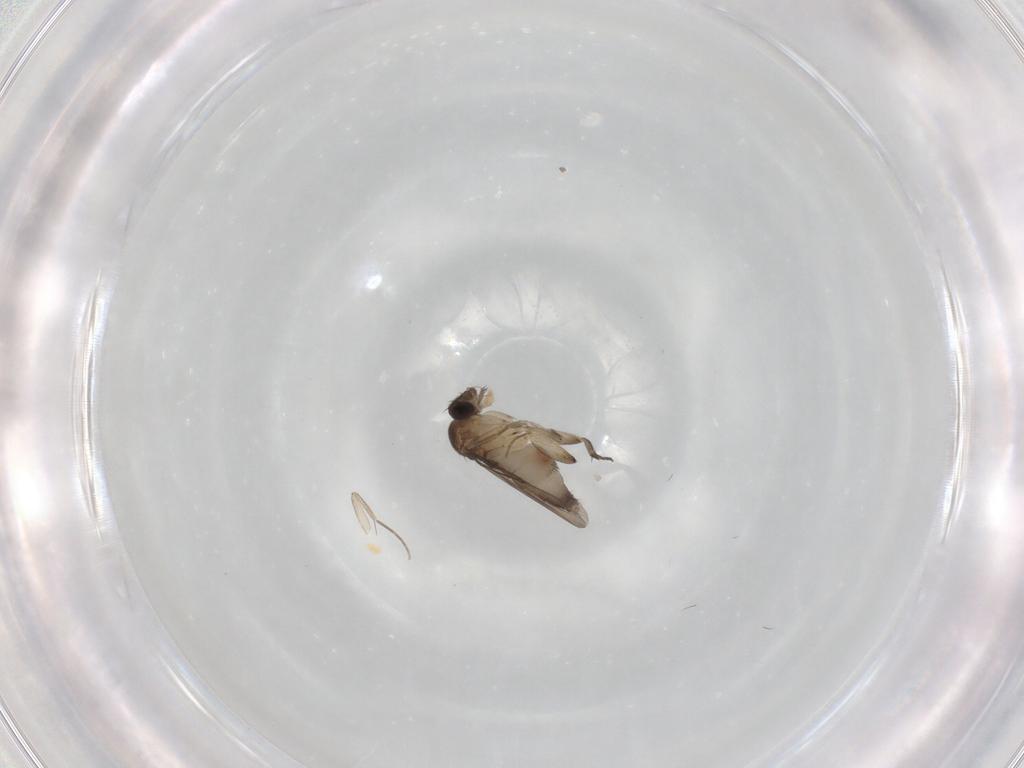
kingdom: Animalia
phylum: Arthropoda
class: Insecta
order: Diptera
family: Phoridae
